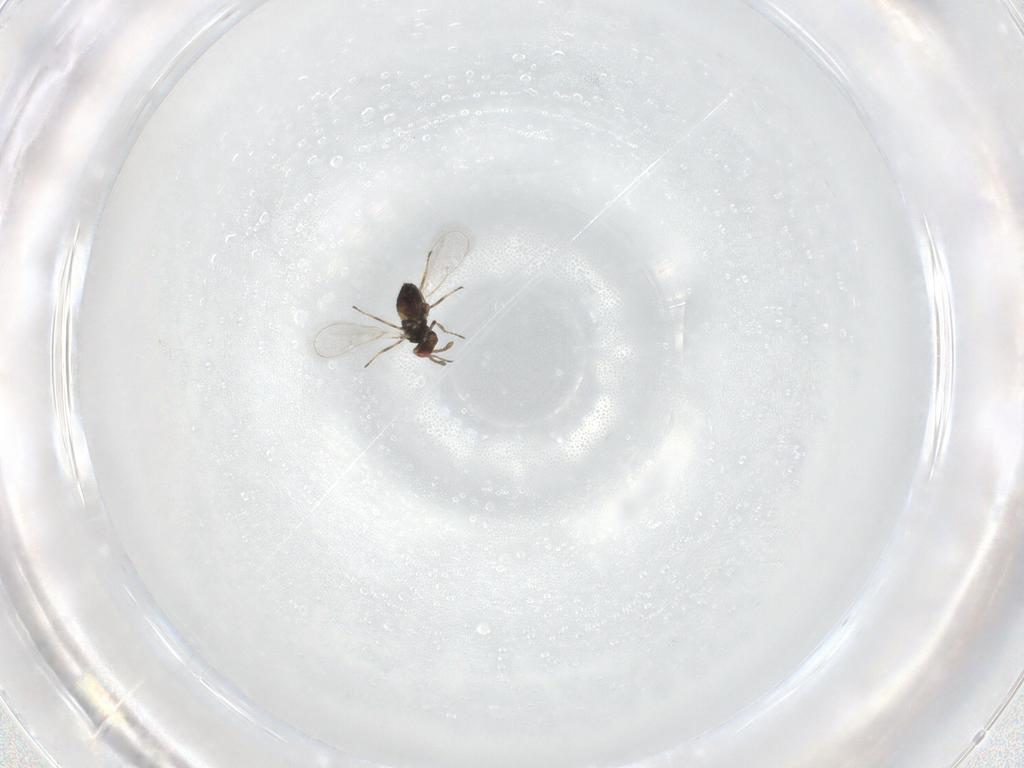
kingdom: Animalia
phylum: Arthropoda
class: Insecta
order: Hymenoptera
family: Eulophidae
